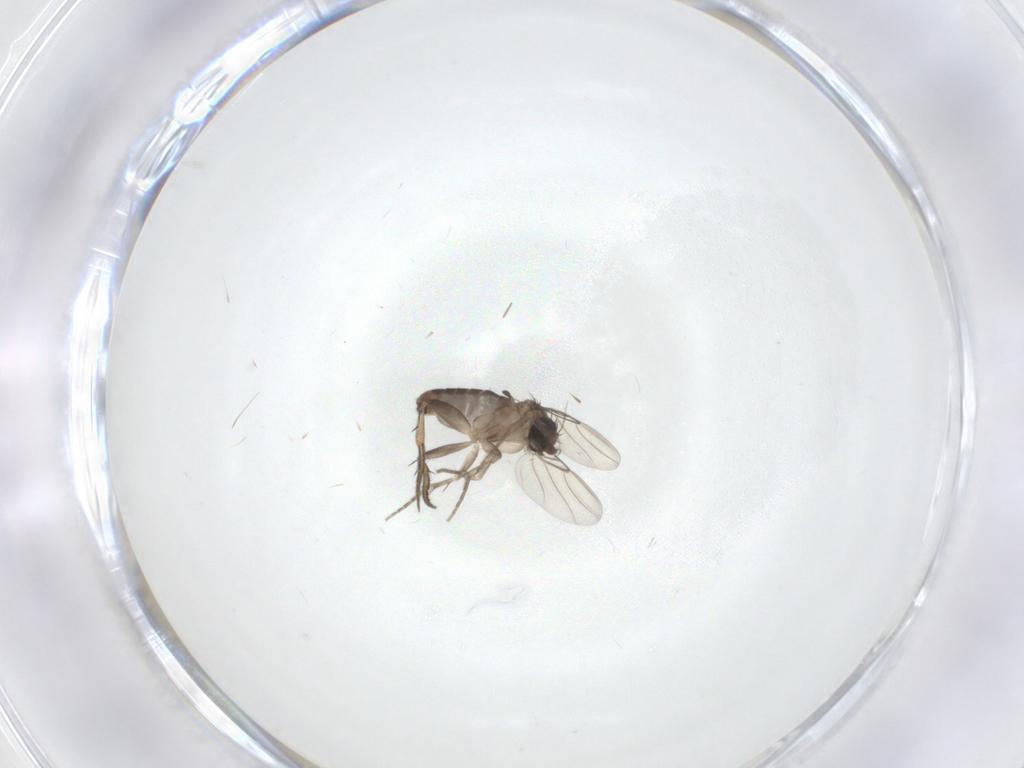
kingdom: Animalia
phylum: Arthropoda
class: Insecta
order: Diptera
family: Phoridae
